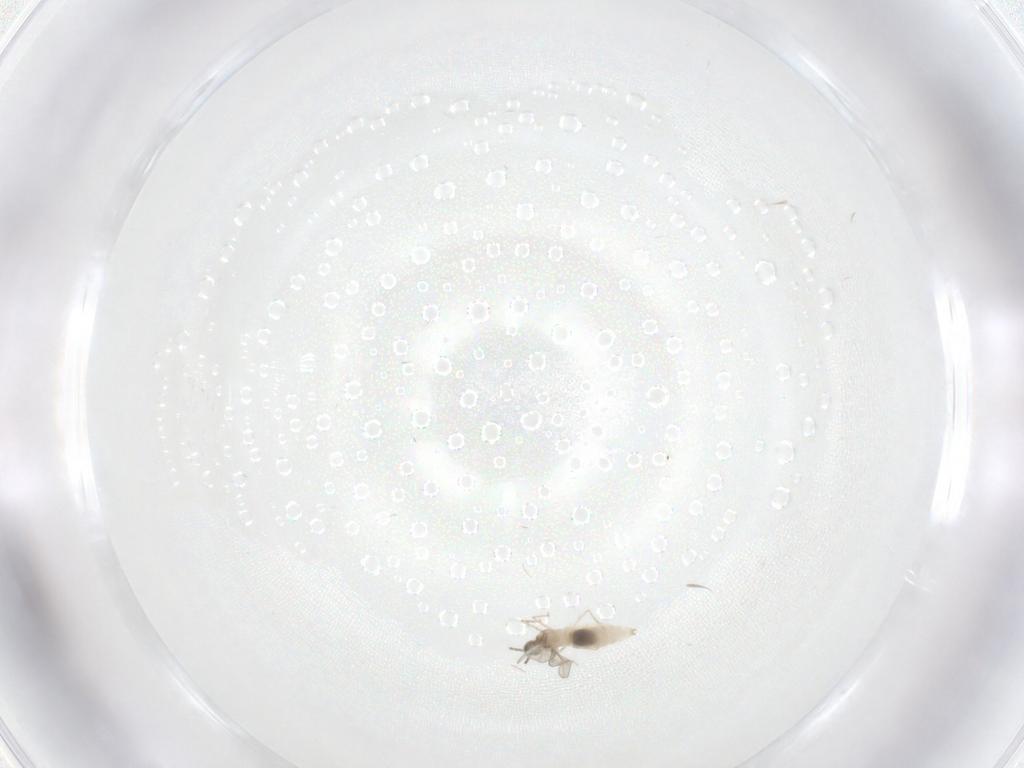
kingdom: Animalia
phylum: Arthropoda
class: Insecta
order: Diptera
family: Cecidomyiidae
